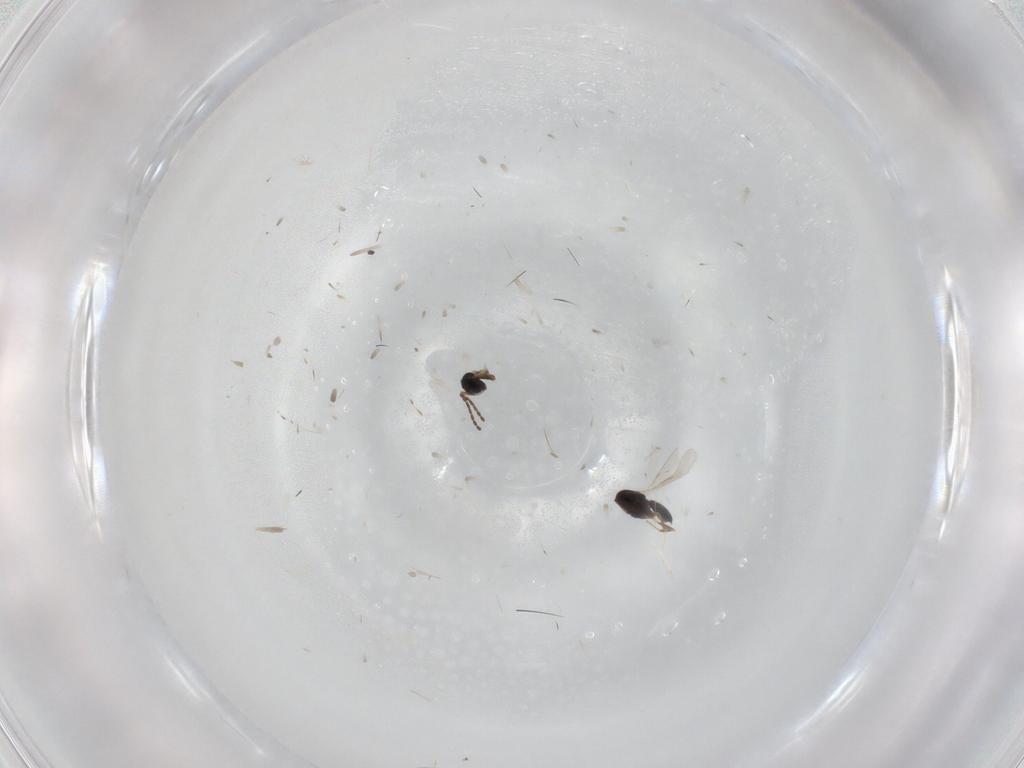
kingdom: Animalia
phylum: Arthropoda
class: Insecta
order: Hymenoptera
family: Scelionidae
